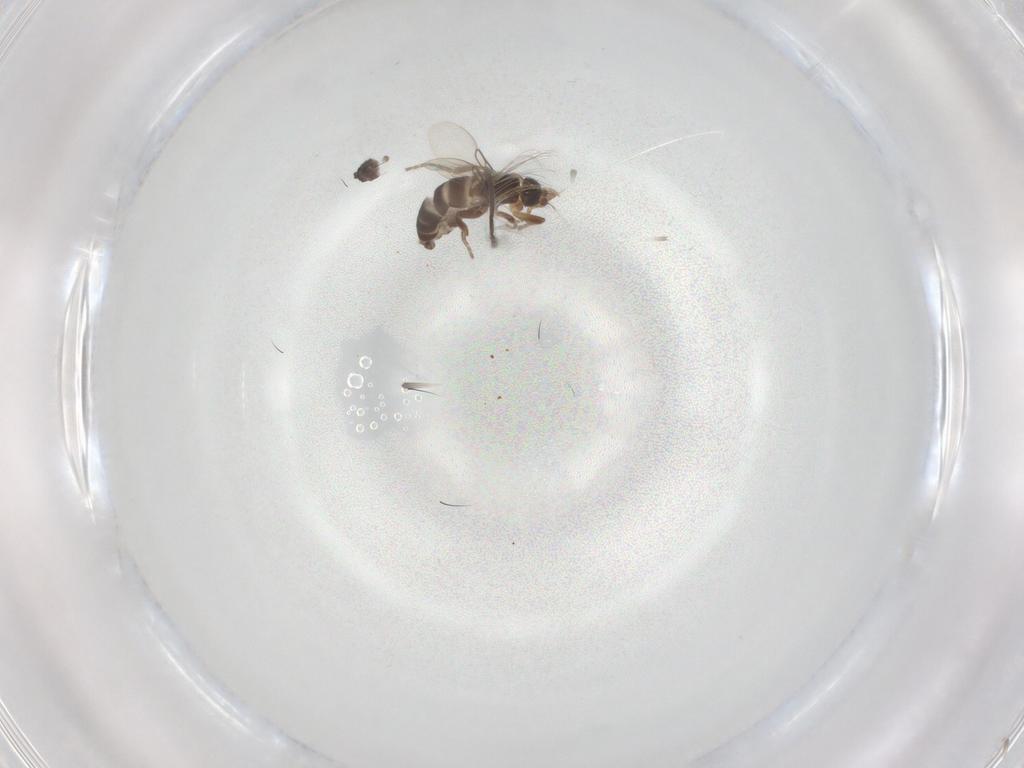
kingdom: Animalia
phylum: Arthropoda
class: Insecta
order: Diptera
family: Phoridae
